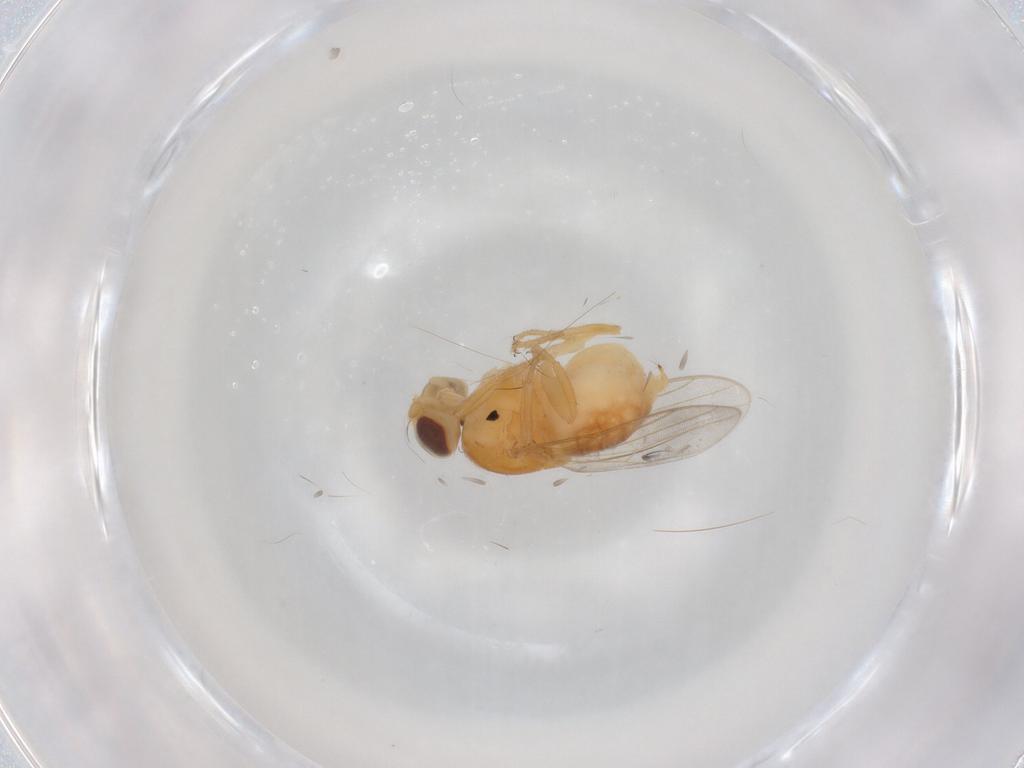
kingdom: Animalia
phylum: Arthropoda
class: Insecta
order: Diptera
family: Chloropidae
